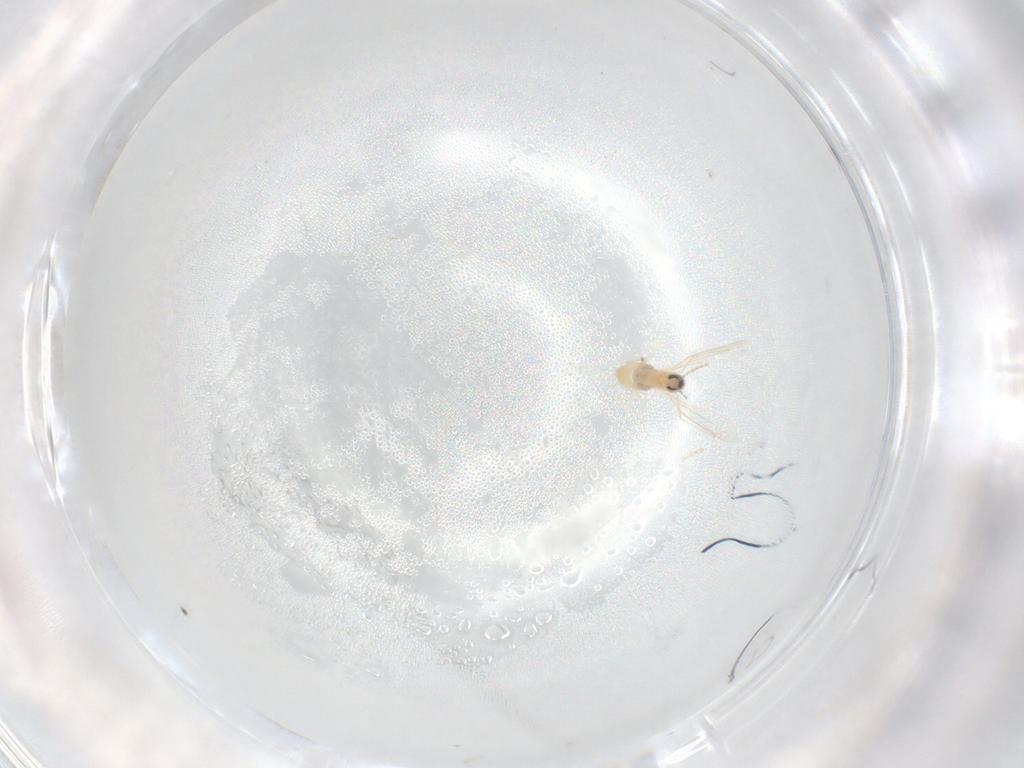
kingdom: Animalia
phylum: Arthropoda
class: Insecta
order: Diptera
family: Cecidomyiidae
